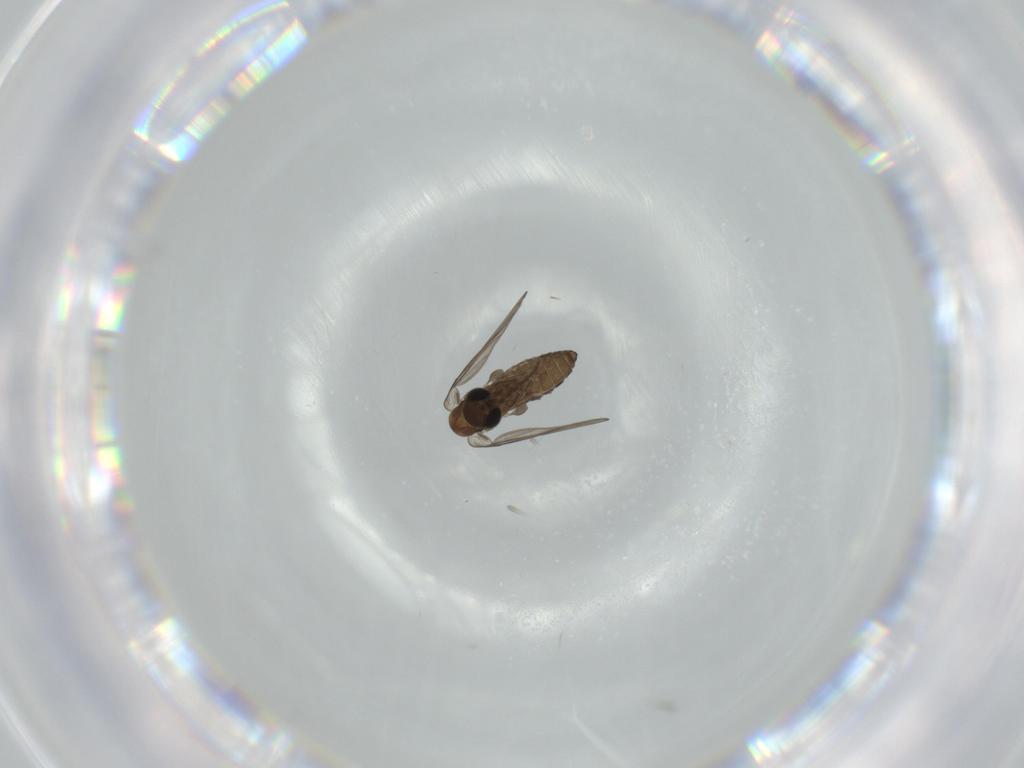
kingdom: Animalia
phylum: Arthropoda
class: Insecta
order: Diptera
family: Psychodidae
